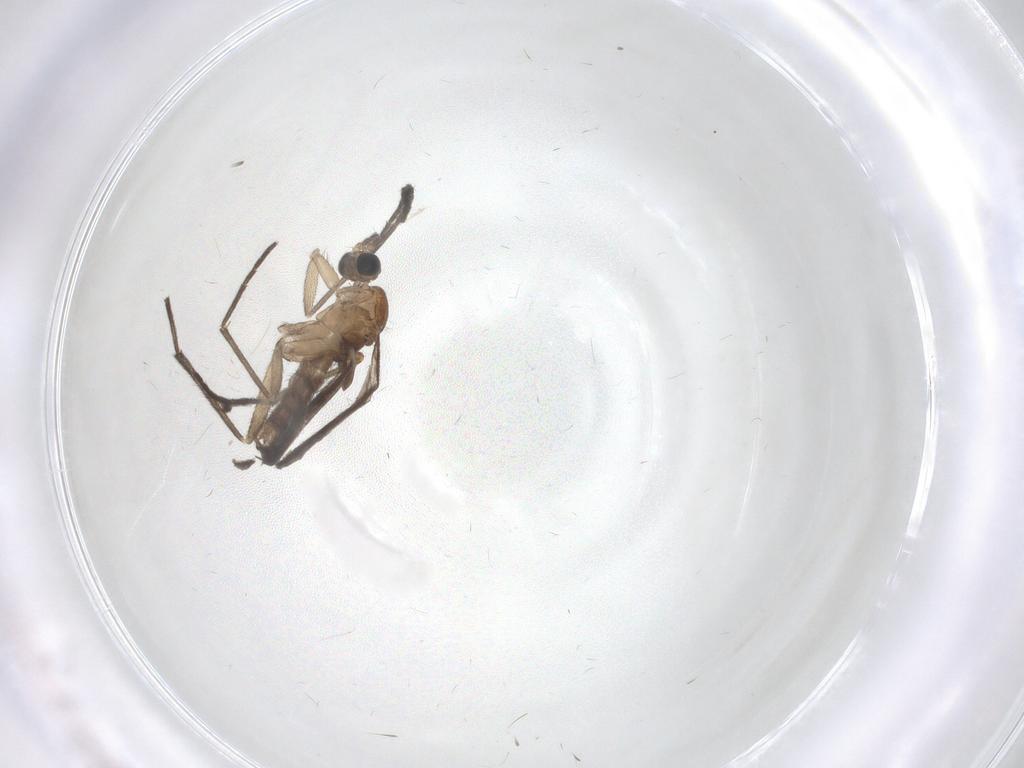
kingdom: Animalia
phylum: Arthropoda
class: Insecta
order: Diptera
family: Sciaridae
